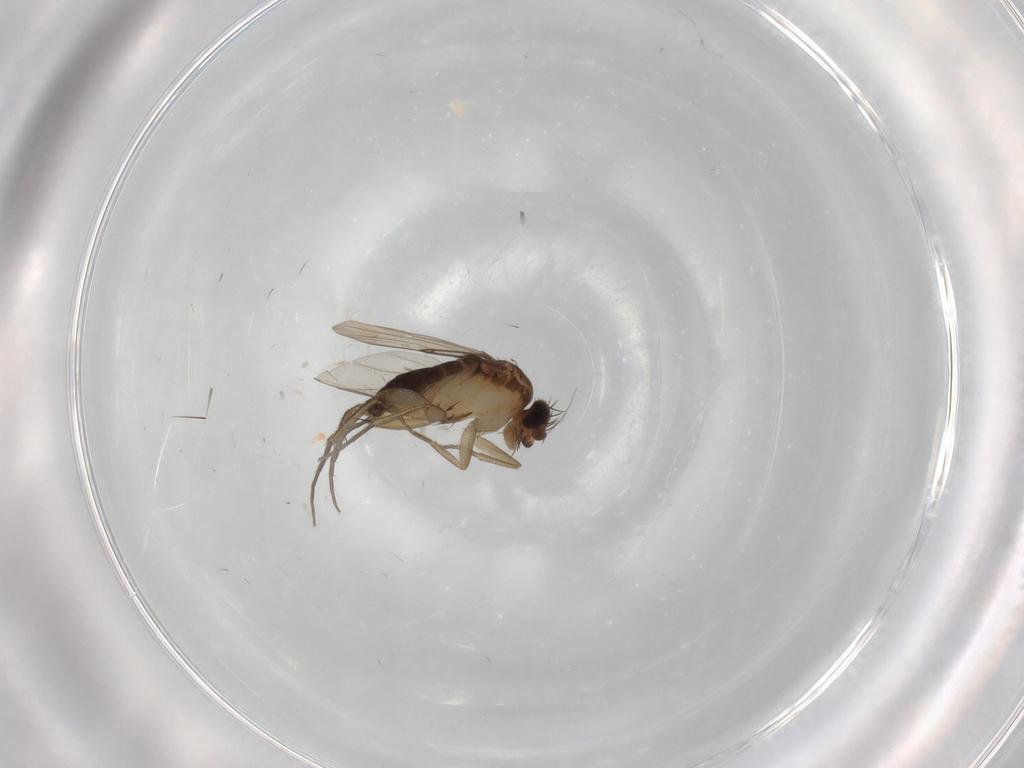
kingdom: Animalia
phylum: Arthropoda
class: Insecta
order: Diptera
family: Phoridae
